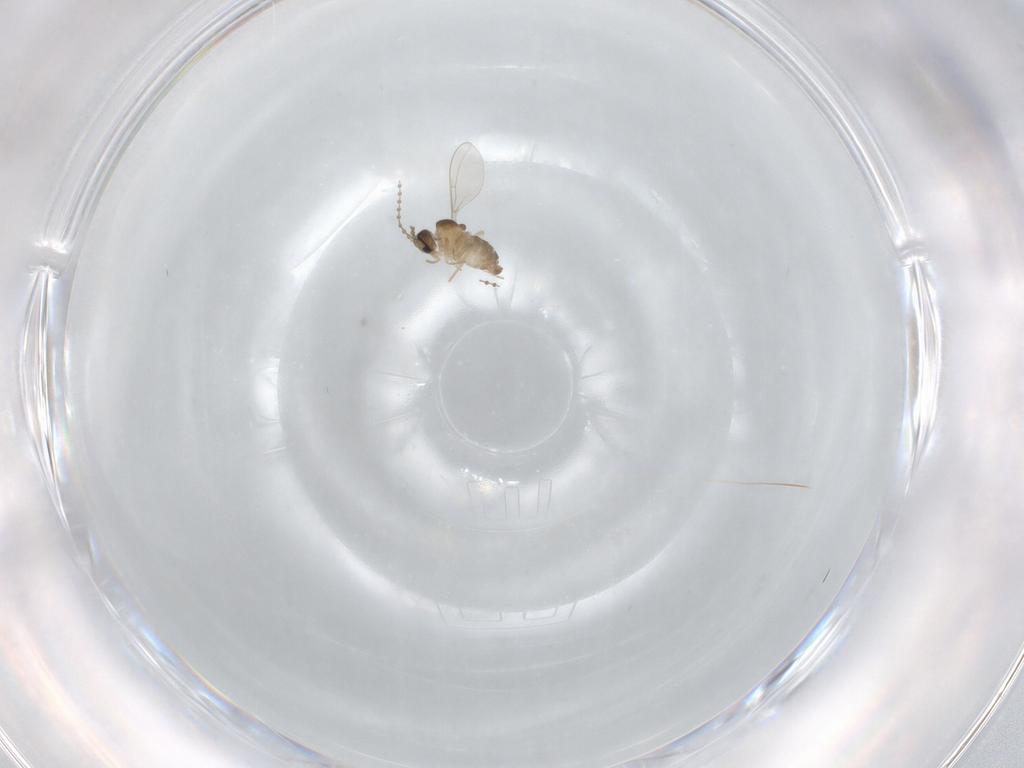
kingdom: Animalia
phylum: Arthropoda
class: Insecta
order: Diptera
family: Cecidomyiidae
